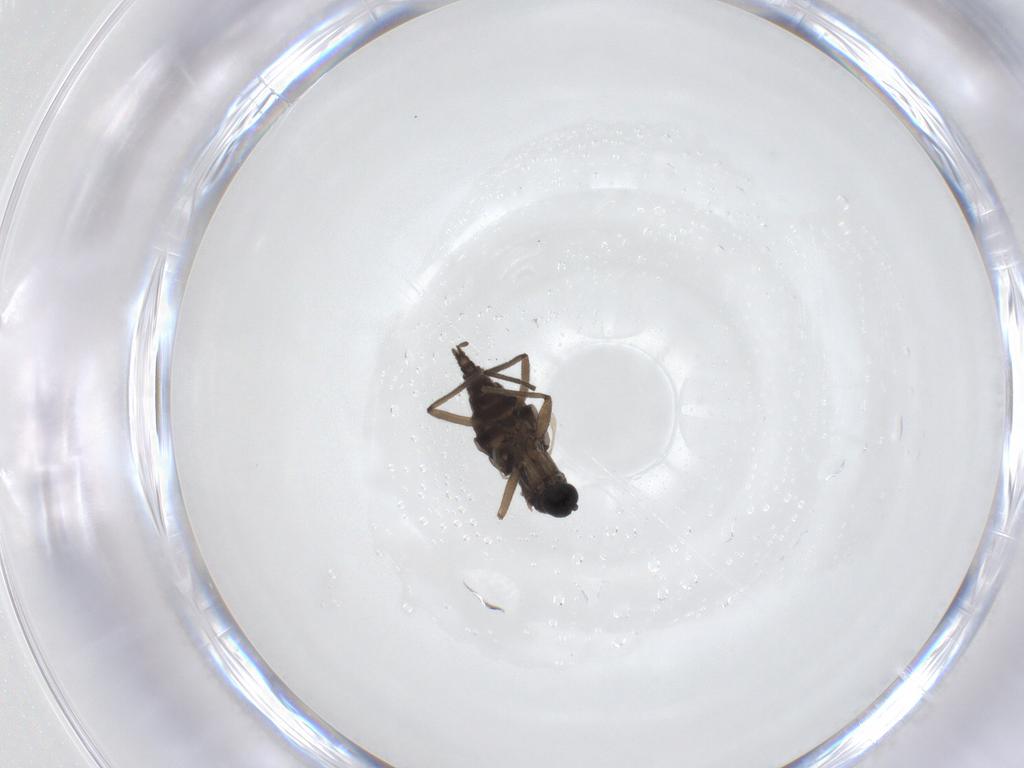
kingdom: Animalia
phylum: Arthropoda
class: Insecta
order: Diptera
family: Sciaridae
